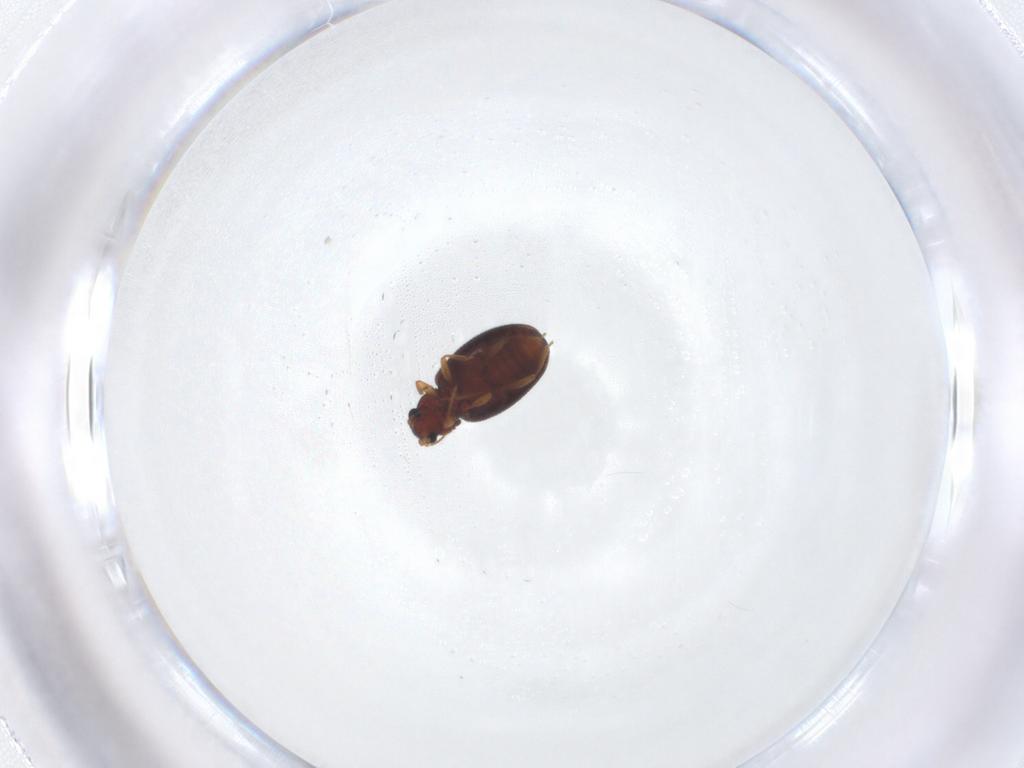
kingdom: Animalia
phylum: Arthropoda
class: Insecta
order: Coleoptera
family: Latridiidae
